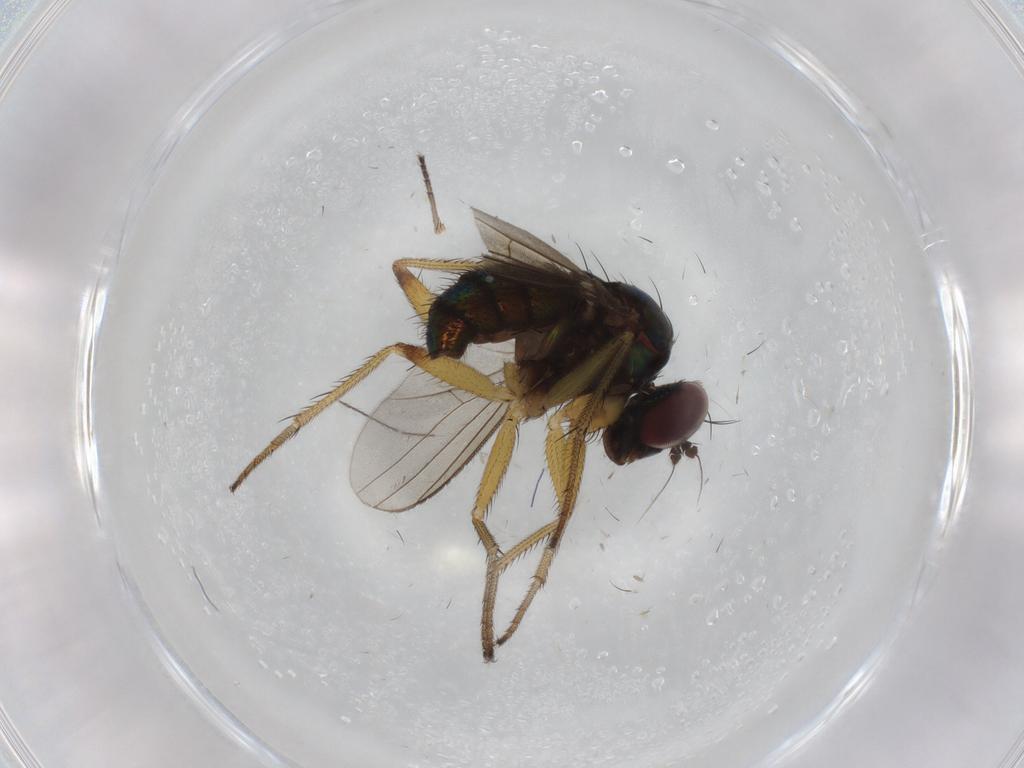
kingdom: Animalia
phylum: Arthropoda
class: Insecta
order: Diptera
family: Dolichopodidae
